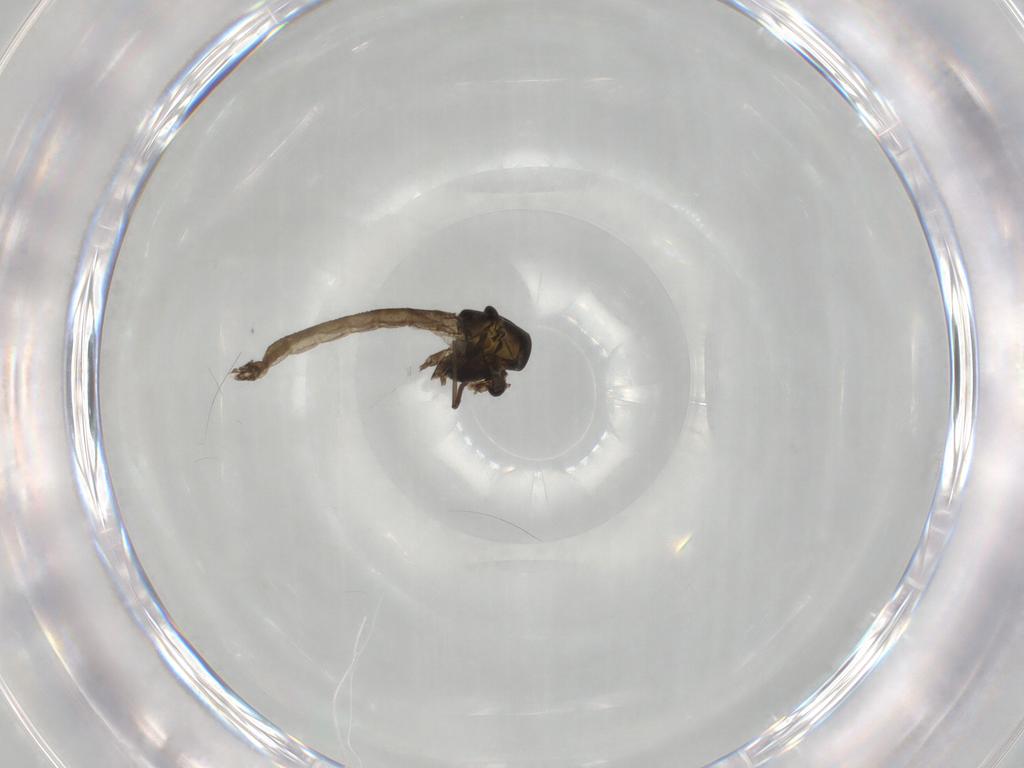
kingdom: Animalia
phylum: Arthropoda
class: Insecta
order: Diptera
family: Chironomidae
